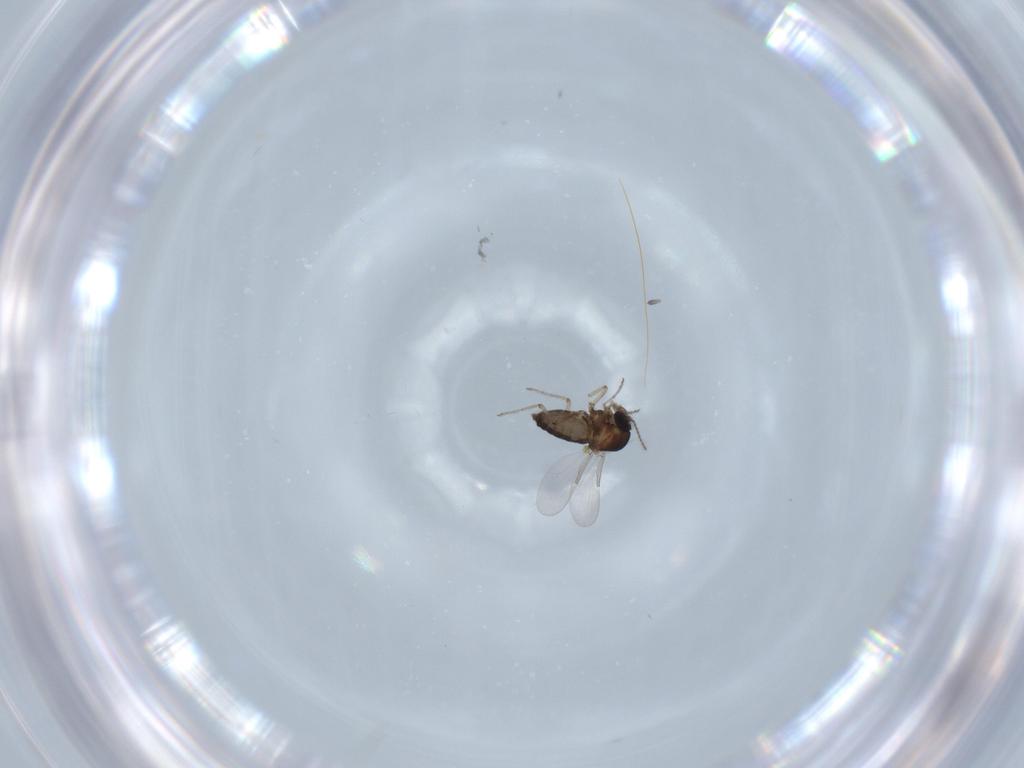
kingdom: Animalia
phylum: Arthropoda
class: Insecta
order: Diptera
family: Ceratopogonidae
